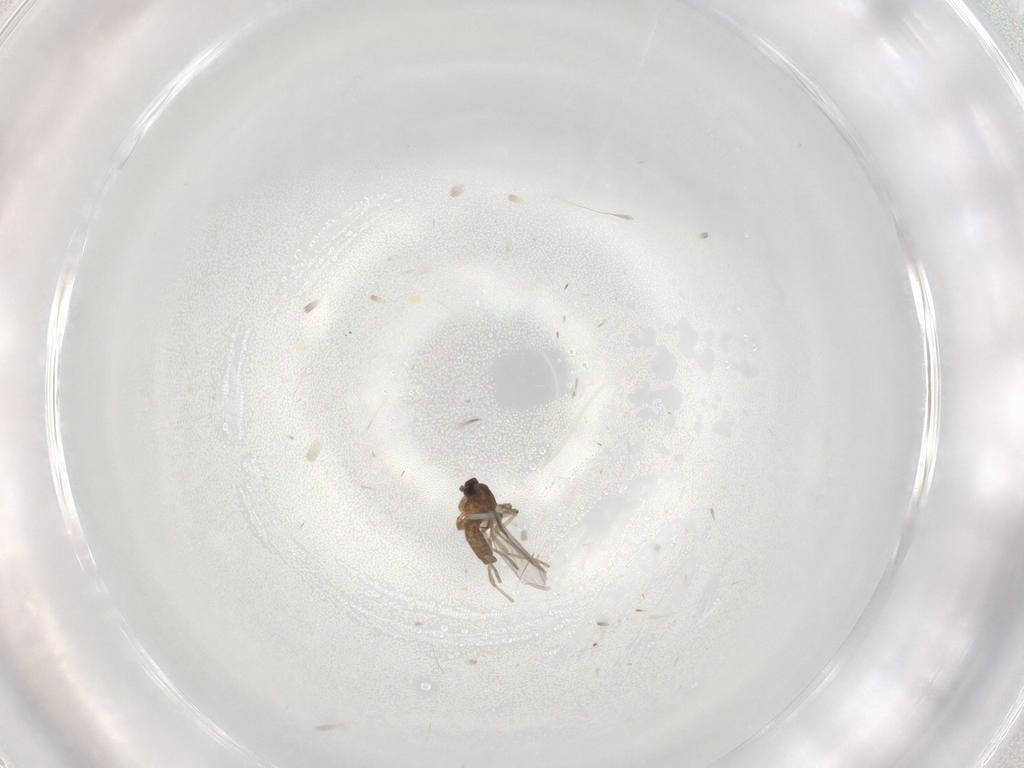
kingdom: Animalia
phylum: Arthropoda
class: Insecta
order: Diptera
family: Cecidomyiidae
